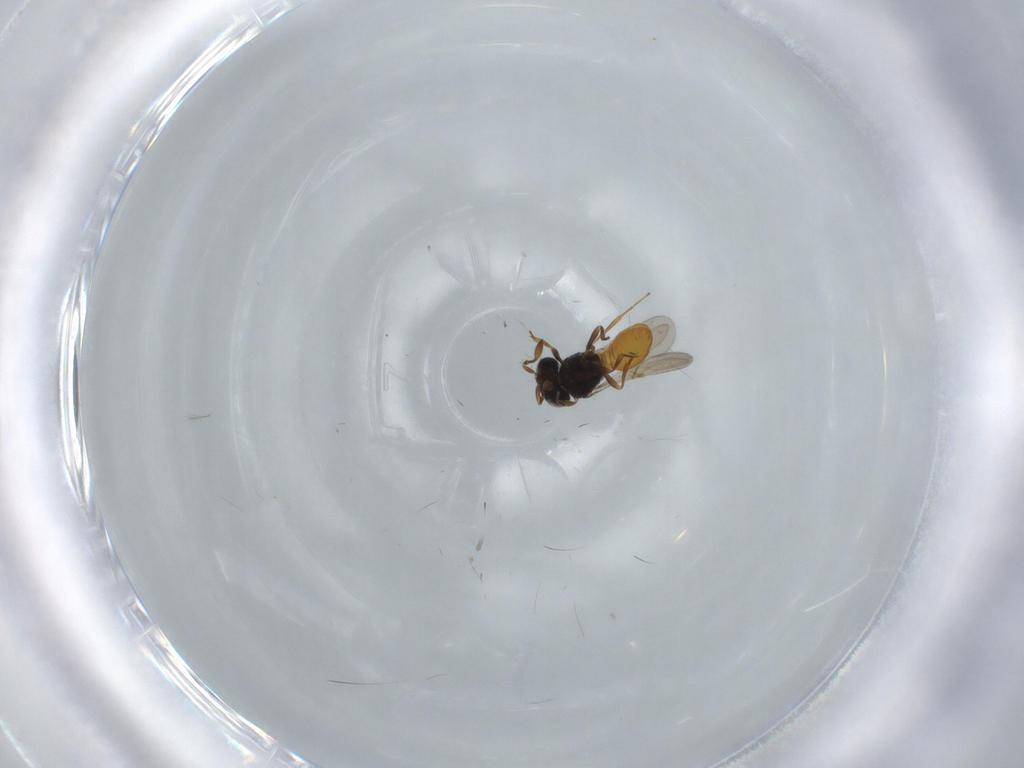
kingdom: Animalia
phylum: Arthropoda
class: Insecta
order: Hymenoptera
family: Scelionidae
